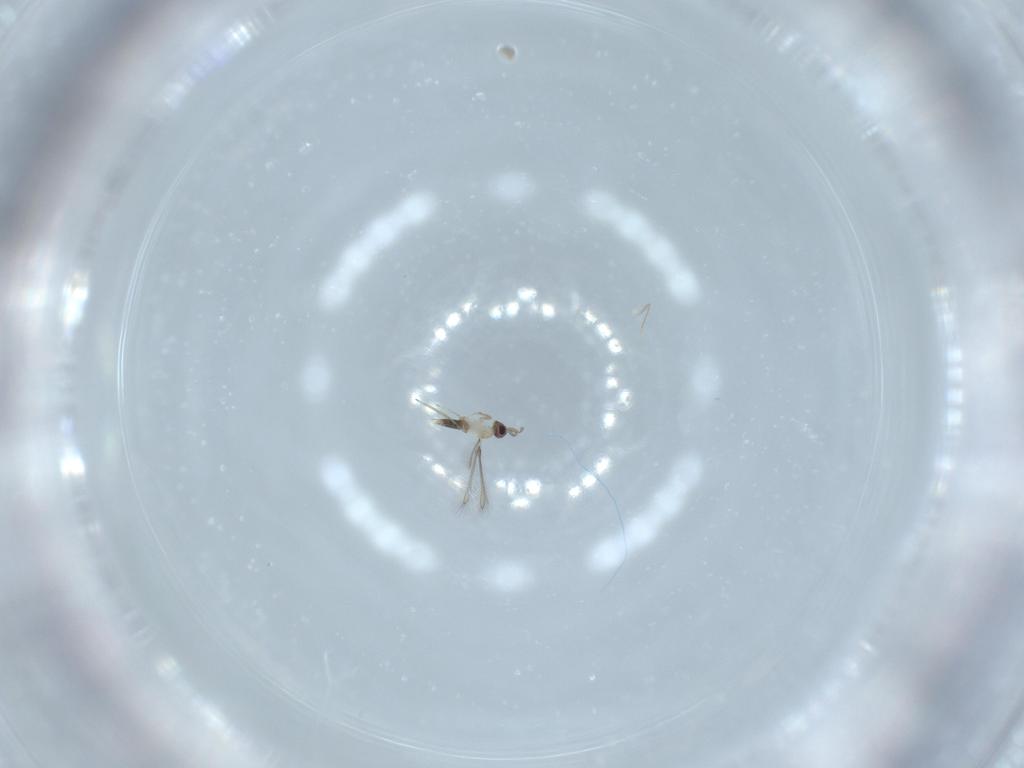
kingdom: Animalia
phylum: Arthropoda
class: Insecta
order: Hymenoptera
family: Mymaridae
